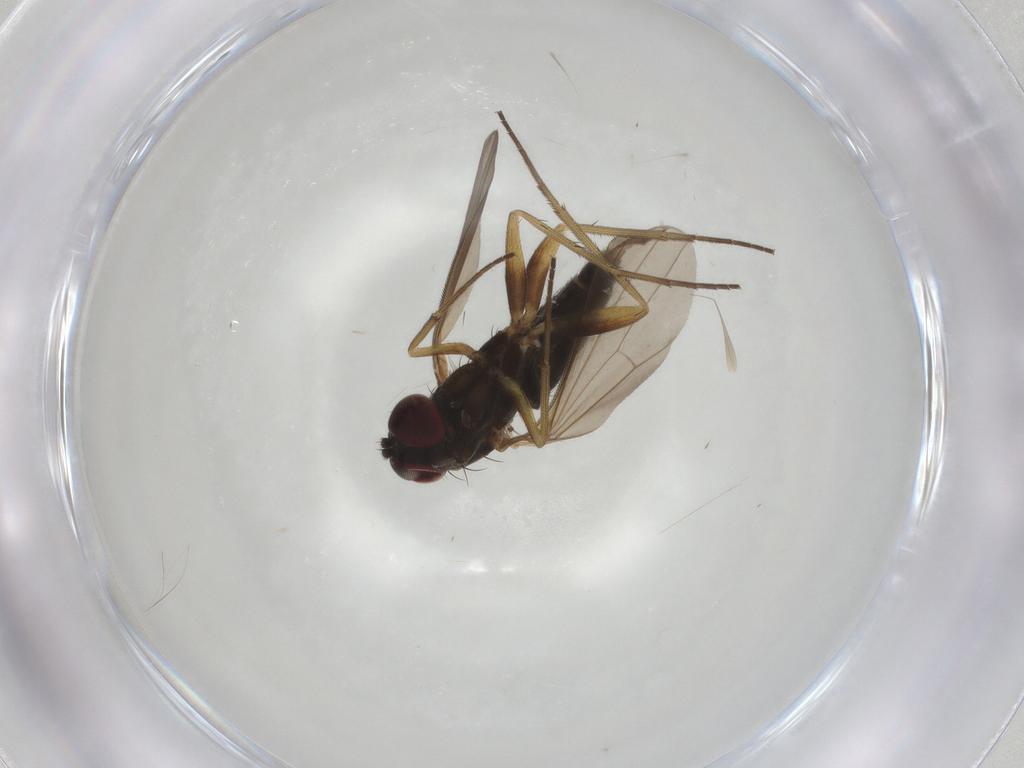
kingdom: Animalia
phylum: Arthropoda
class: Insecta
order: Diptera
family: Dolichopodidae
